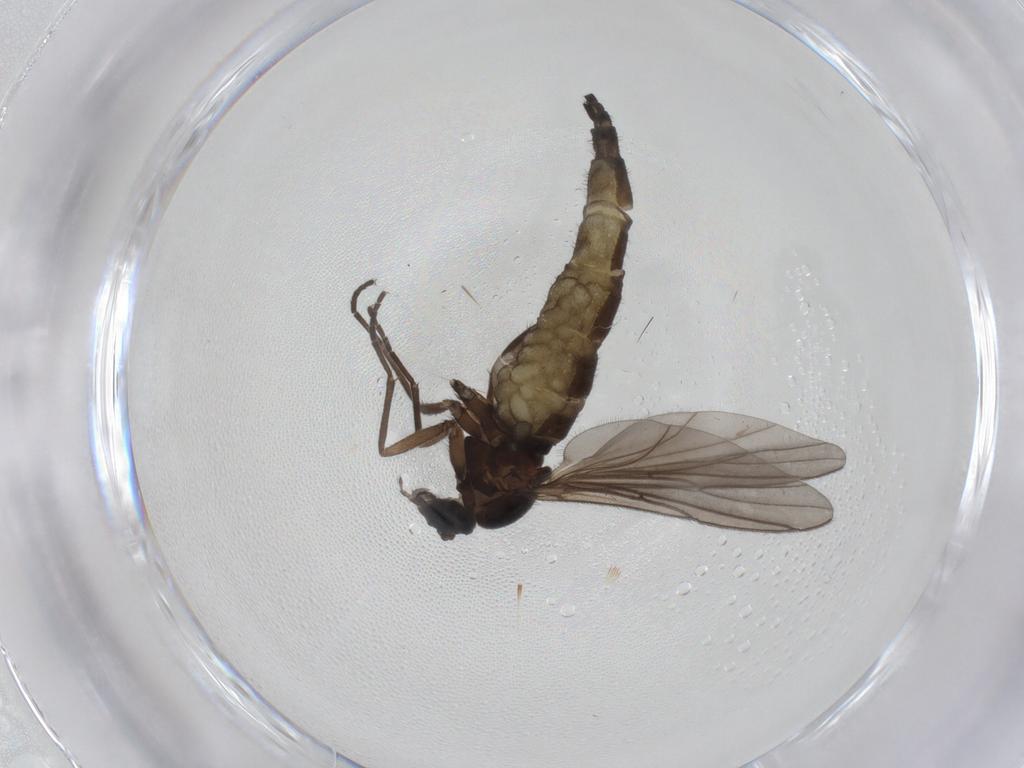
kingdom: Animalia
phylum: Arthropoda
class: Insecta
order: Diptera
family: Sciaridae
